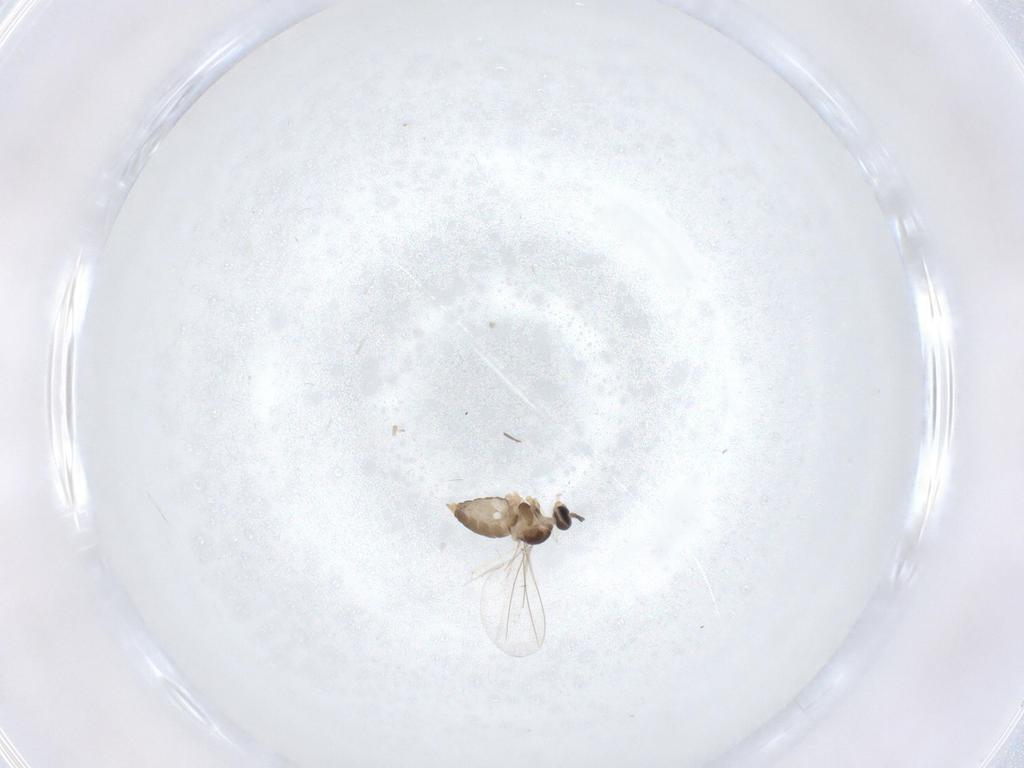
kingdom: Animalia
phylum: Arthropoda
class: Insecta
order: Diptera
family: Cecidomyiidae
